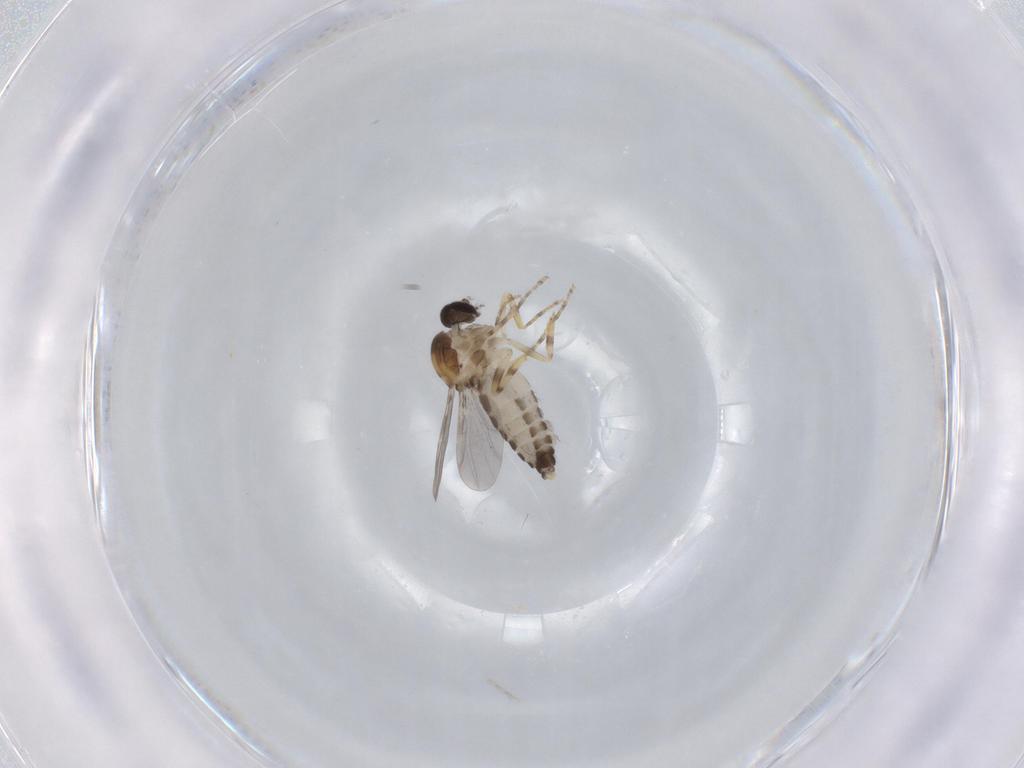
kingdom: Animalia
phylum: Arthropoda
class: Insecta
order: Diptera
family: Ceratopogonidae
